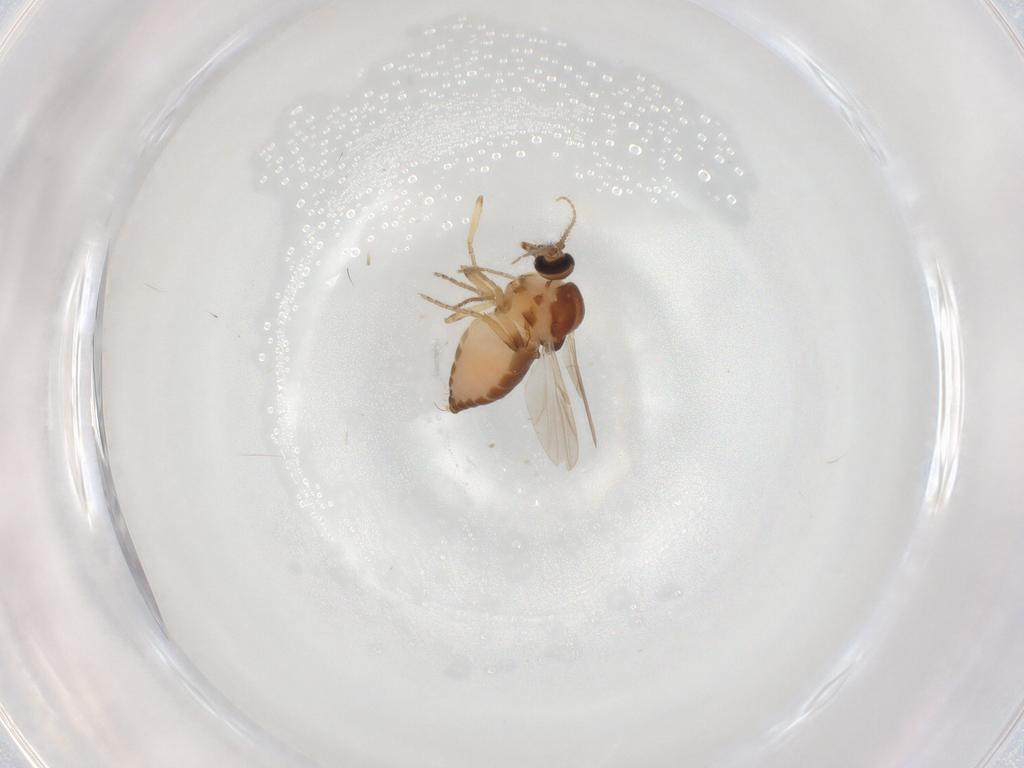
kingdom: Animalia
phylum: Arthropoda
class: Insecta
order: Diptera
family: Ceratopogonidae
